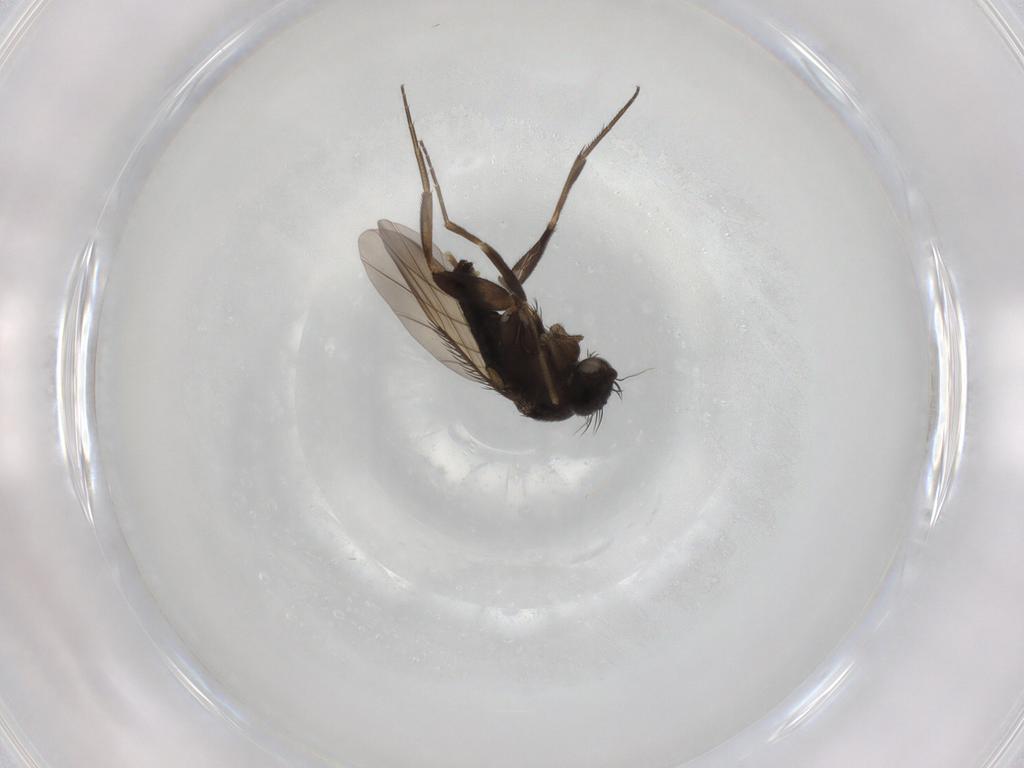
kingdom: Animalia
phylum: Arthropoda
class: Insecta
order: Diptera
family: Phoridae
